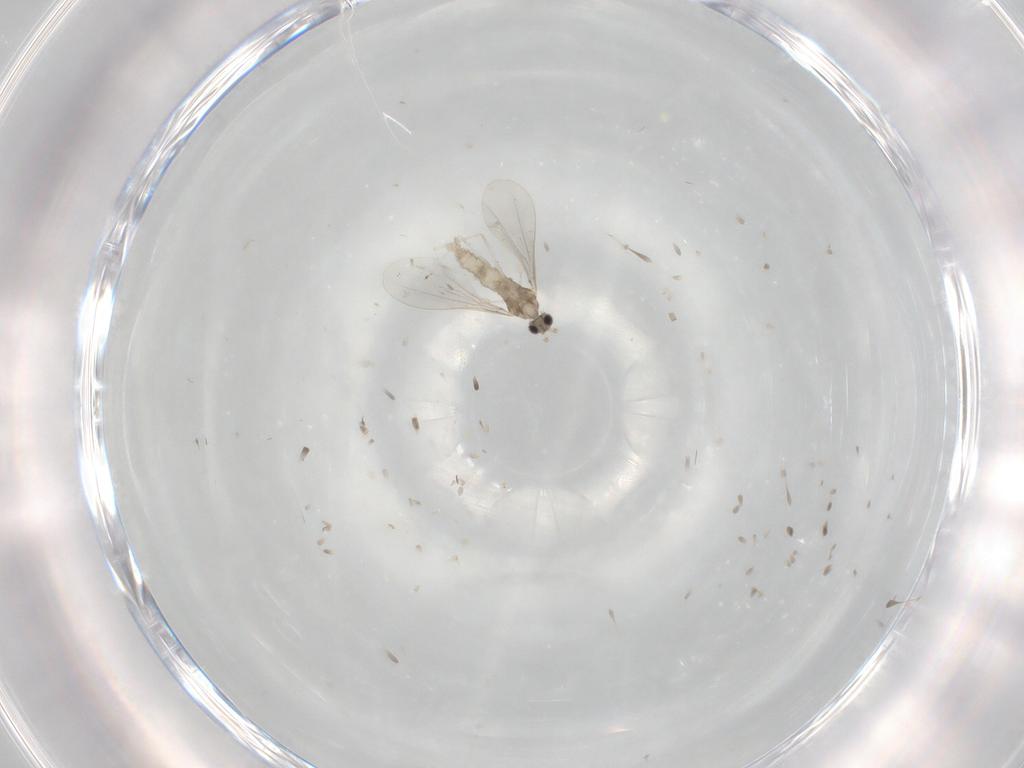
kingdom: Animalia
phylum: Arthropoda
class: Insecta
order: Diptera
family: Cecidomyiidae
